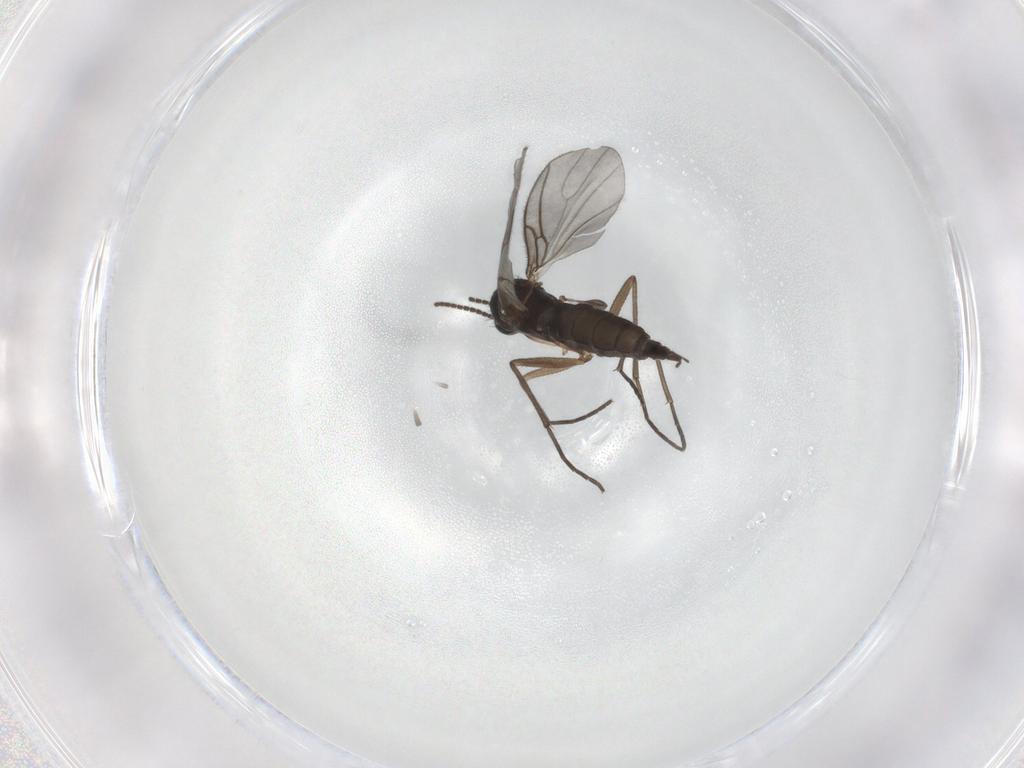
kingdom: Animalia
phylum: Arthropoda
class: Insecta
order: Diptera
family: Sciaridae
